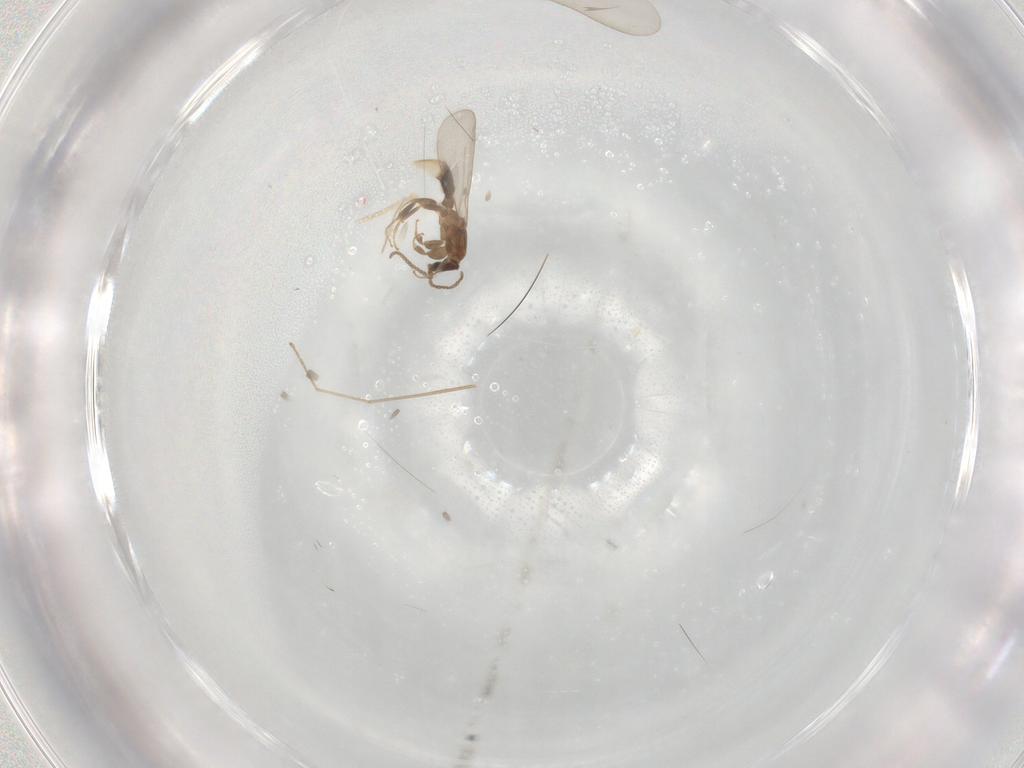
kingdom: Animalia
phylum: Arthropoda
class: Insecta
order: Hymenoptera
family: Formicidae
